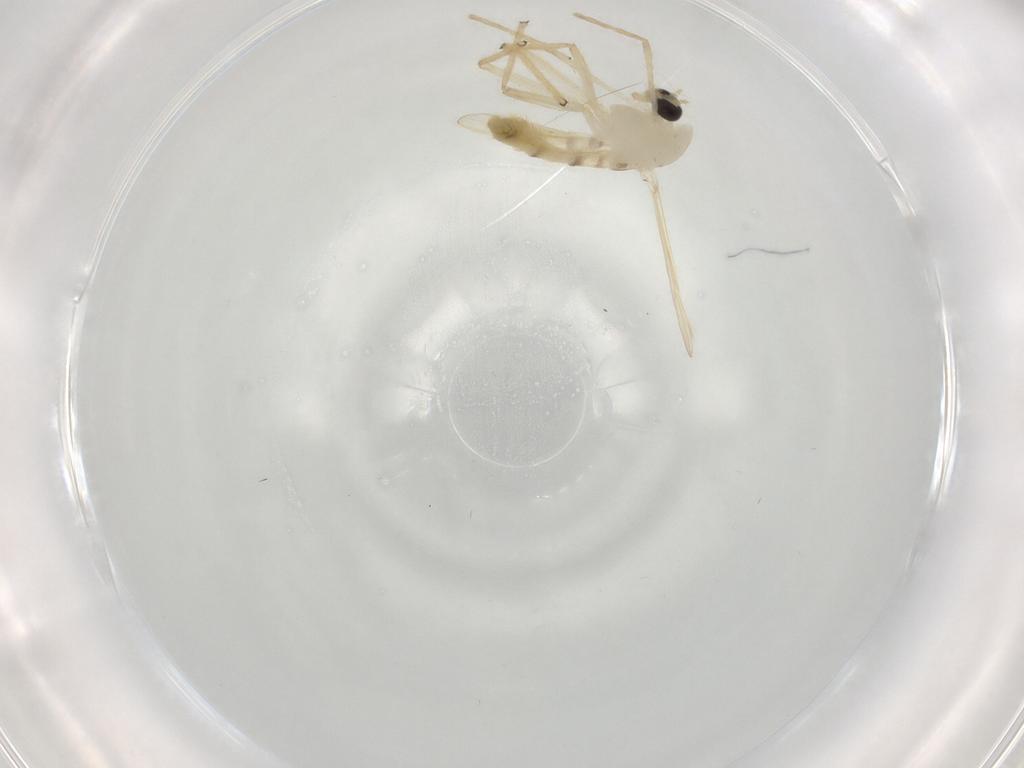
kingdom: Animalia
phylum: Arthropoda
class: Insecta
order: Diptera
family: Chironomidae
